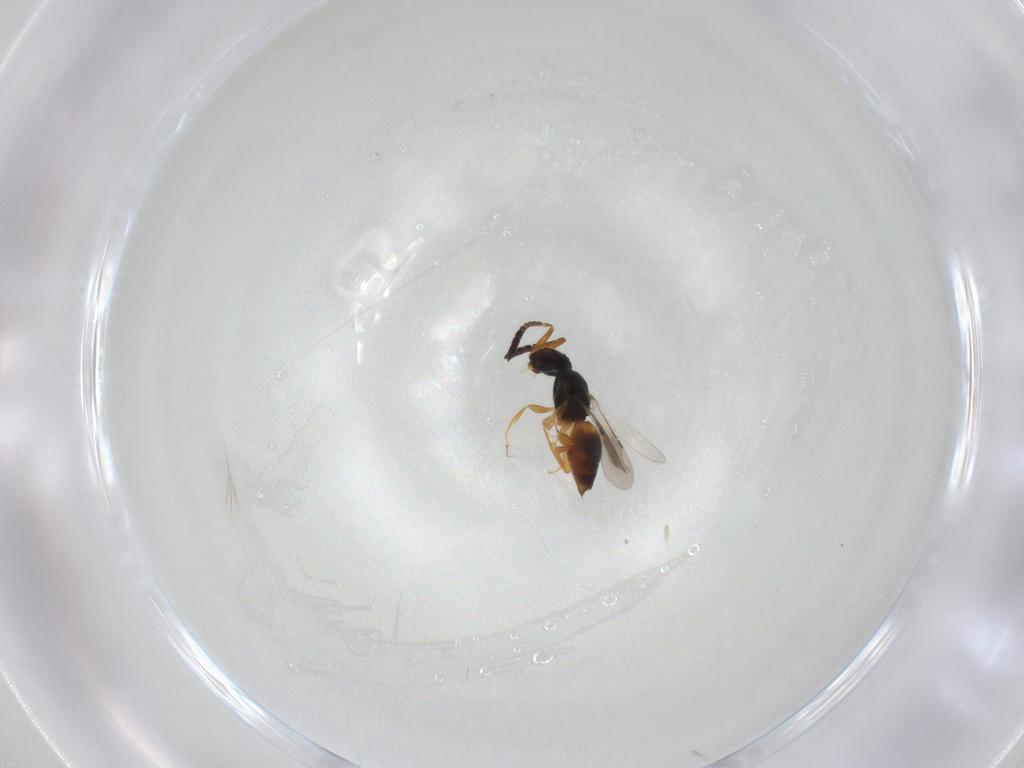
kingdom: Animalia
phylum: Arthropoda
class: Insecta
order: Hymenoptera
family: Ceraphronidae
